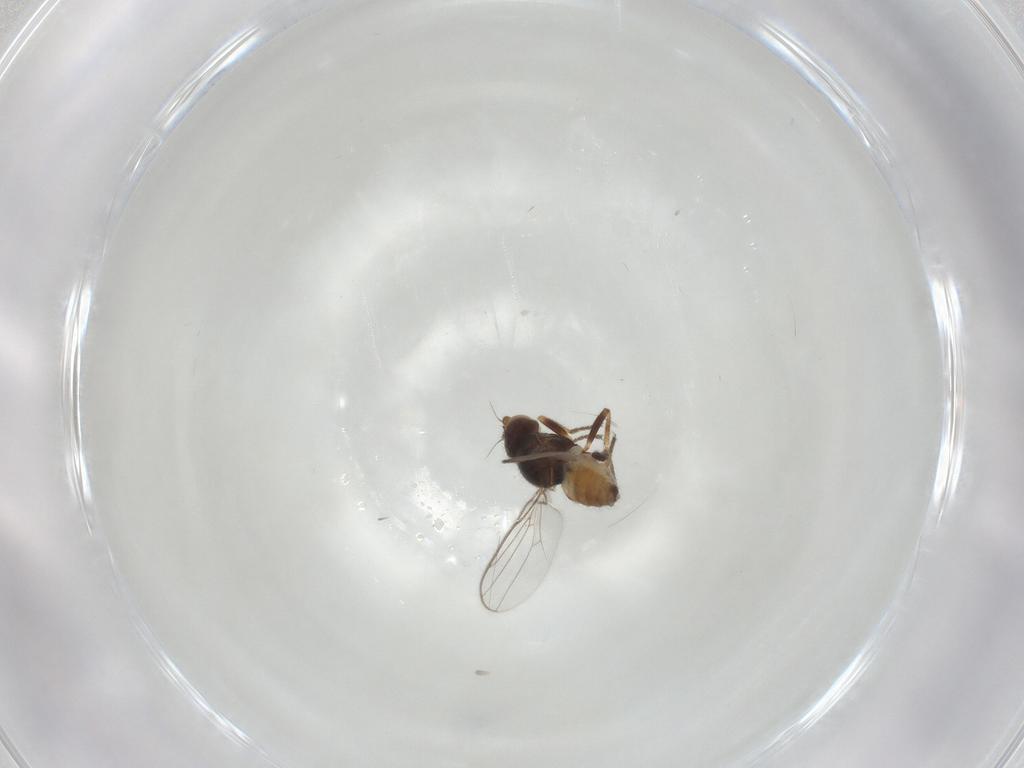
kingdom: Animalia
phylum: Arthropoda
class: Insecta
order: Diptera
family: Chloropidae
